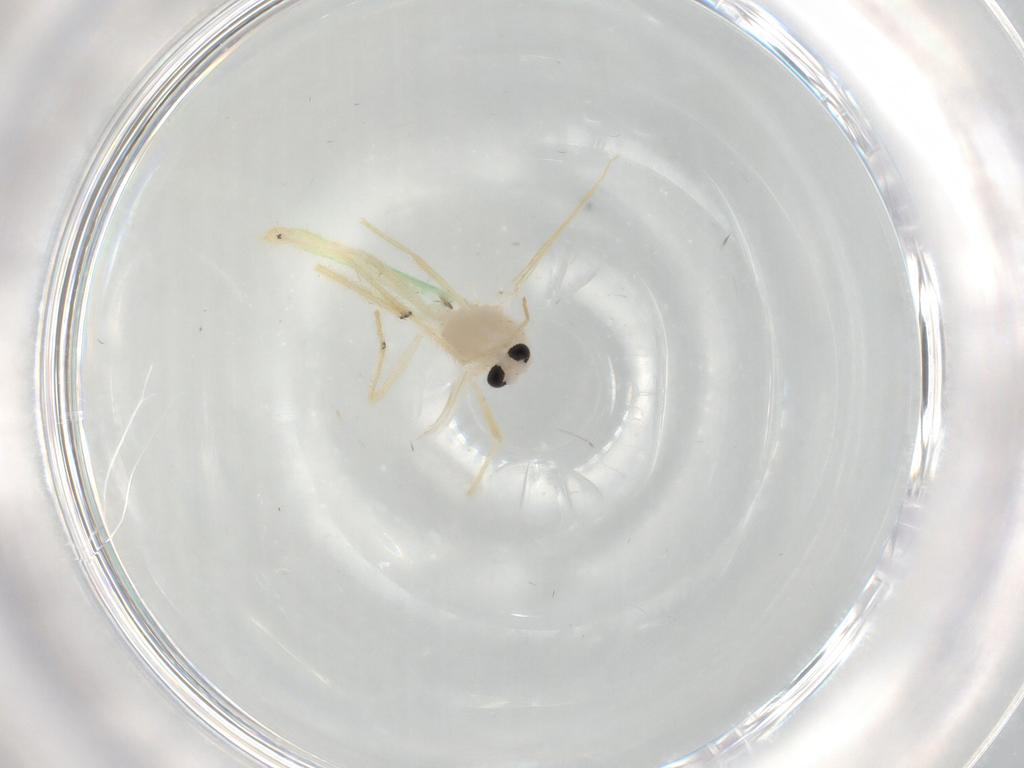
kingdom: Animalia
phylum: Arthropoda
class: Insecta
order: Diptera
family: Chironomidae
